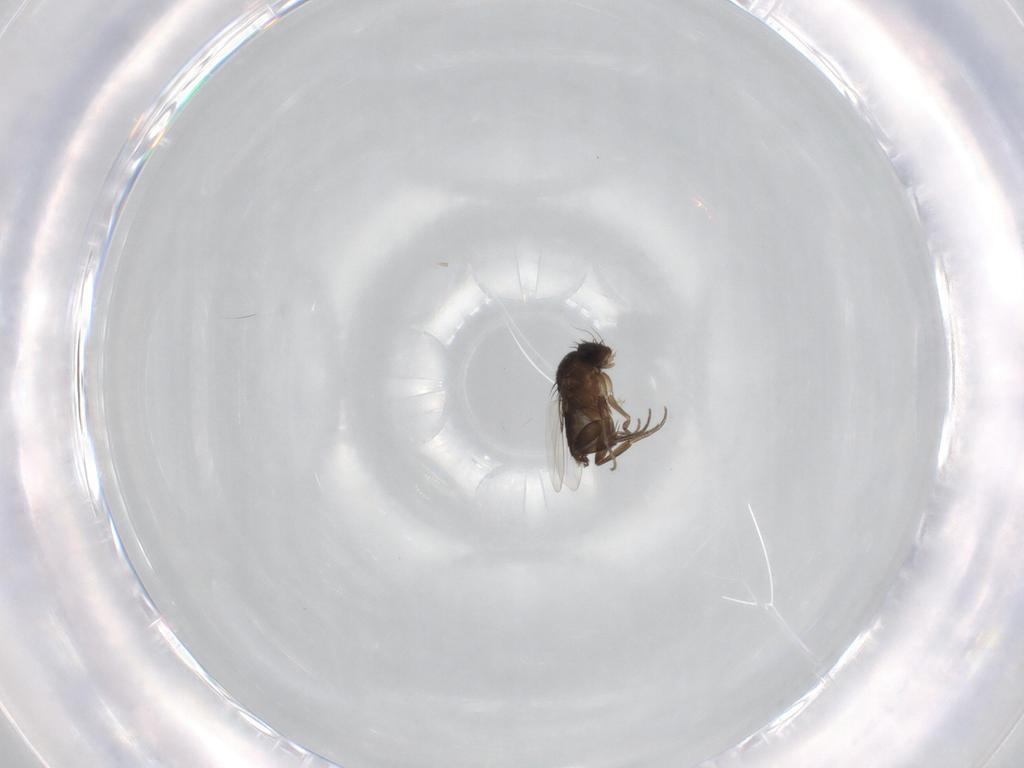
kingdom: Animalia
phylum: Arthropoda
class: Insecta
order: Diptera
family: Phoridae
